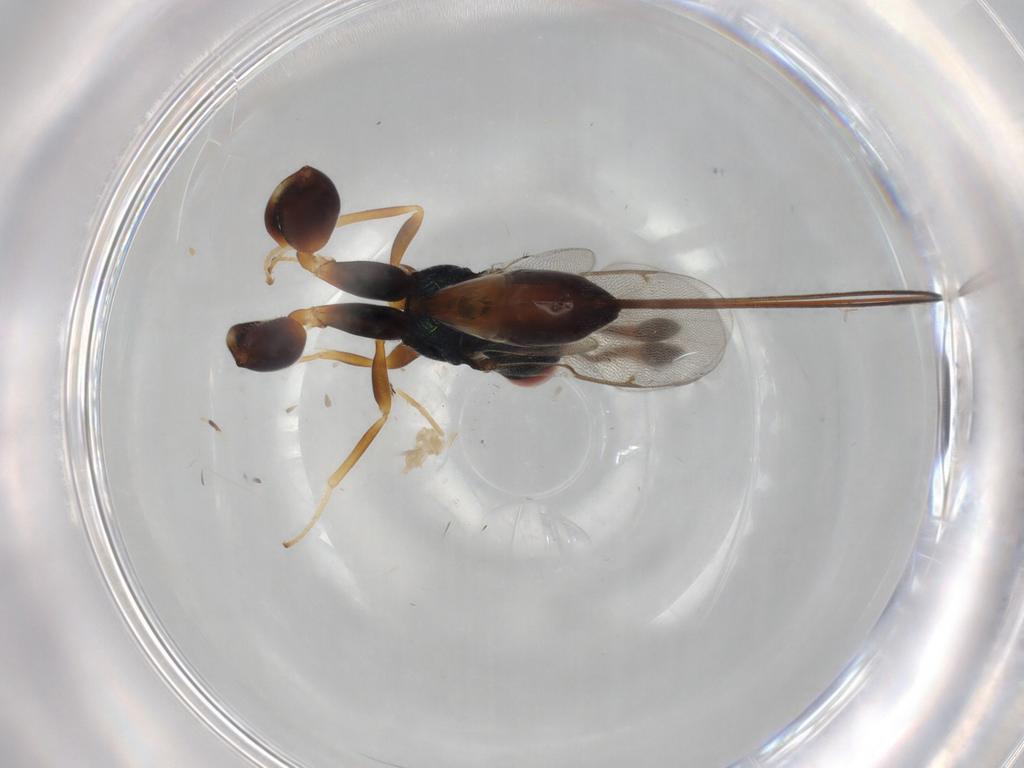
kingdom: Animalia
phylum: Arthropoda
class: Insecta
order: Hymenoptera
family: Torymidae
